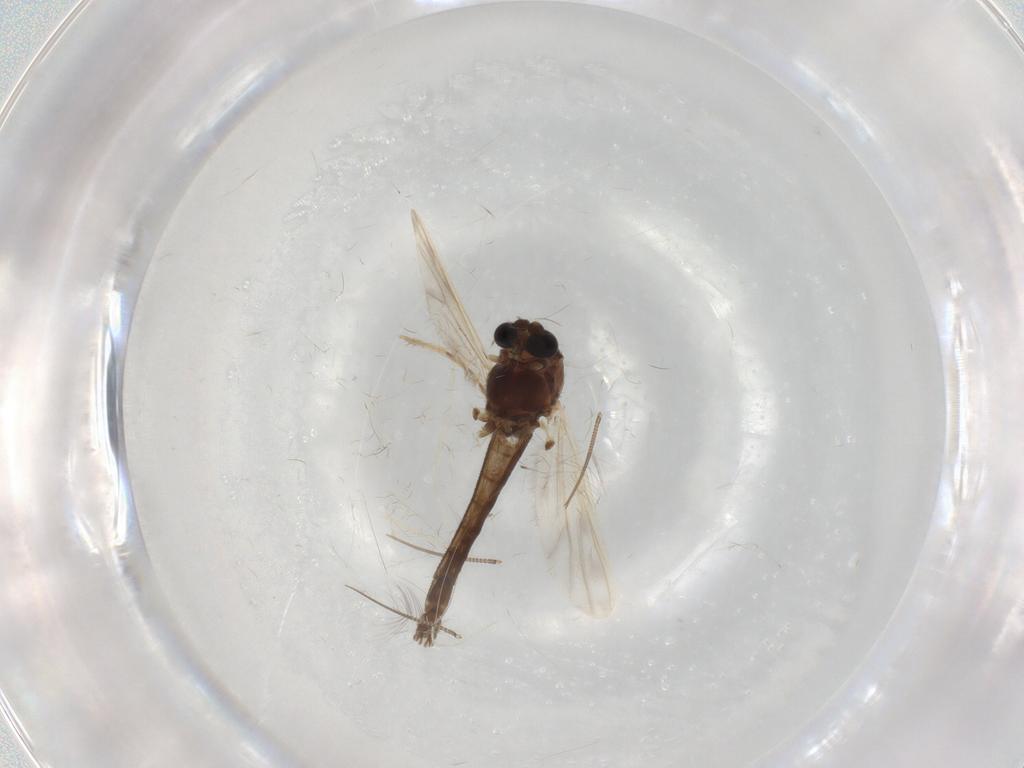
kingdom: Animalia
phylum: Arthropoda
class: Insecta
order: Diptera
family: Chironomidae
